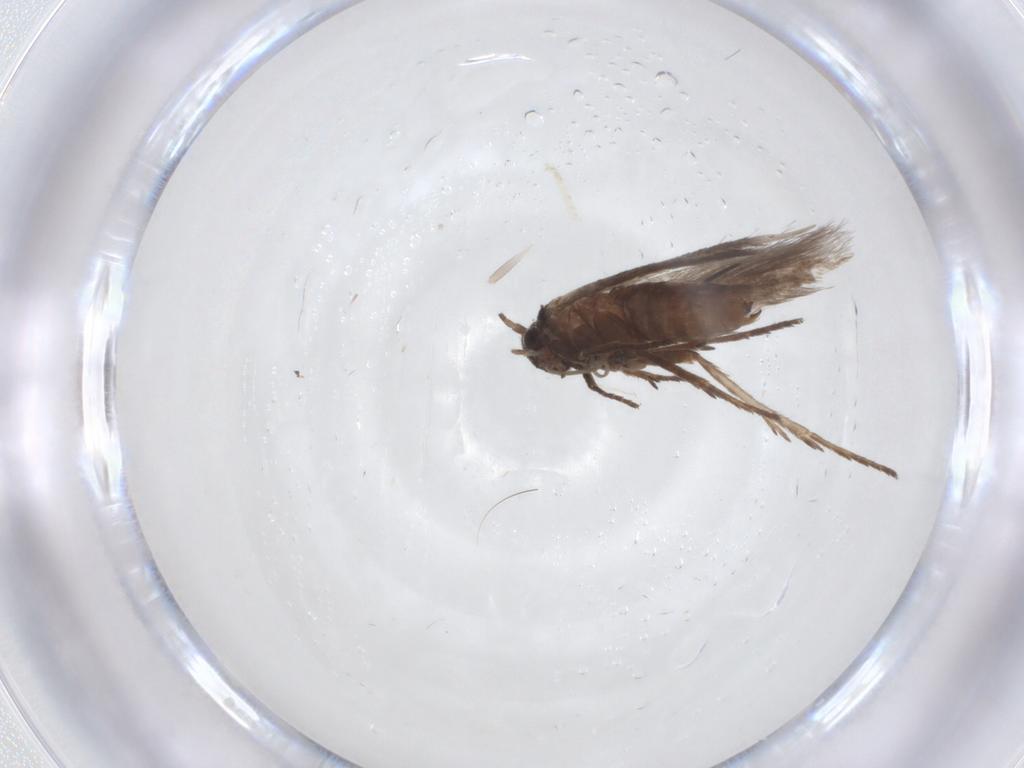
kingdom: Animalia
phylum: Arthropoda
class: Insecta
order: Lepidoptera
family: Scythrididae
